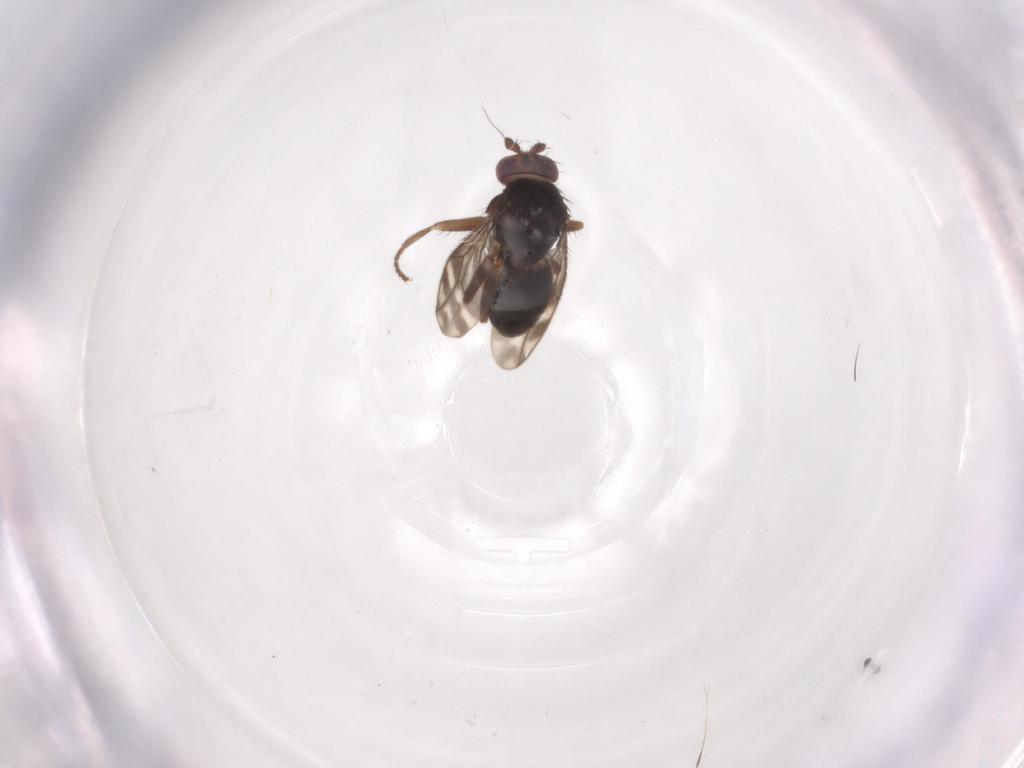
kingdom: Animalia
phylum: Arthropoda
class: Insecta
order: Diptera
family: Sphaeroceridae
